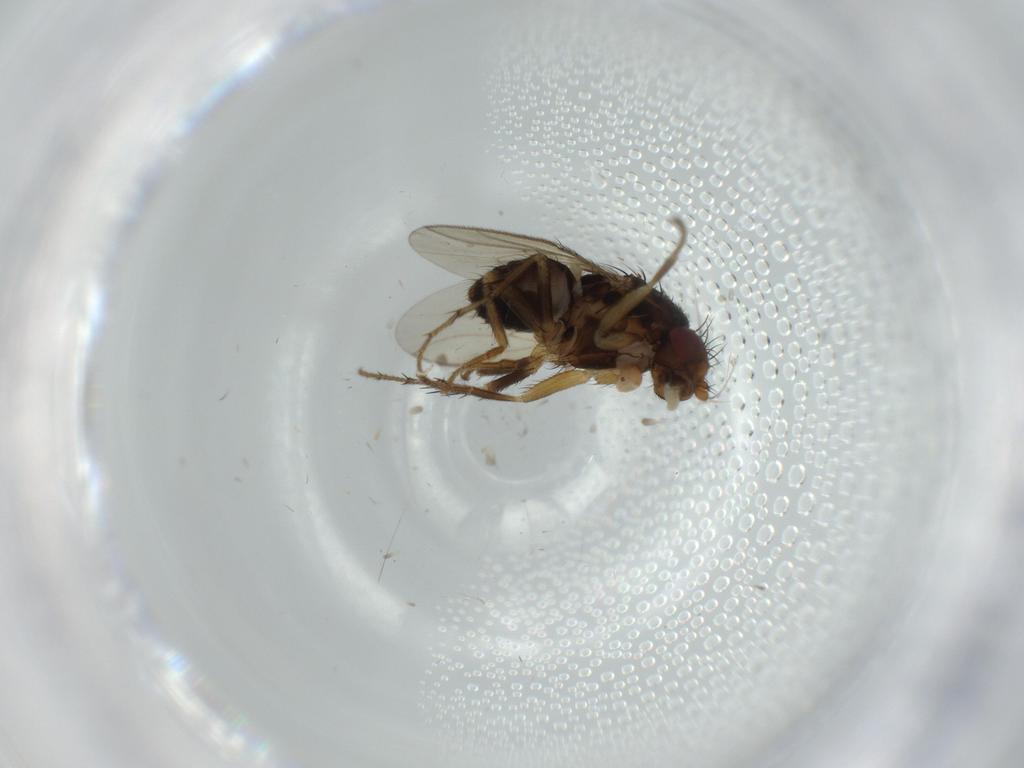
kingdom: Animalia
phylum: Arthropoda
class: Insecta
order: Diptera
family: Sphaeroceridae
